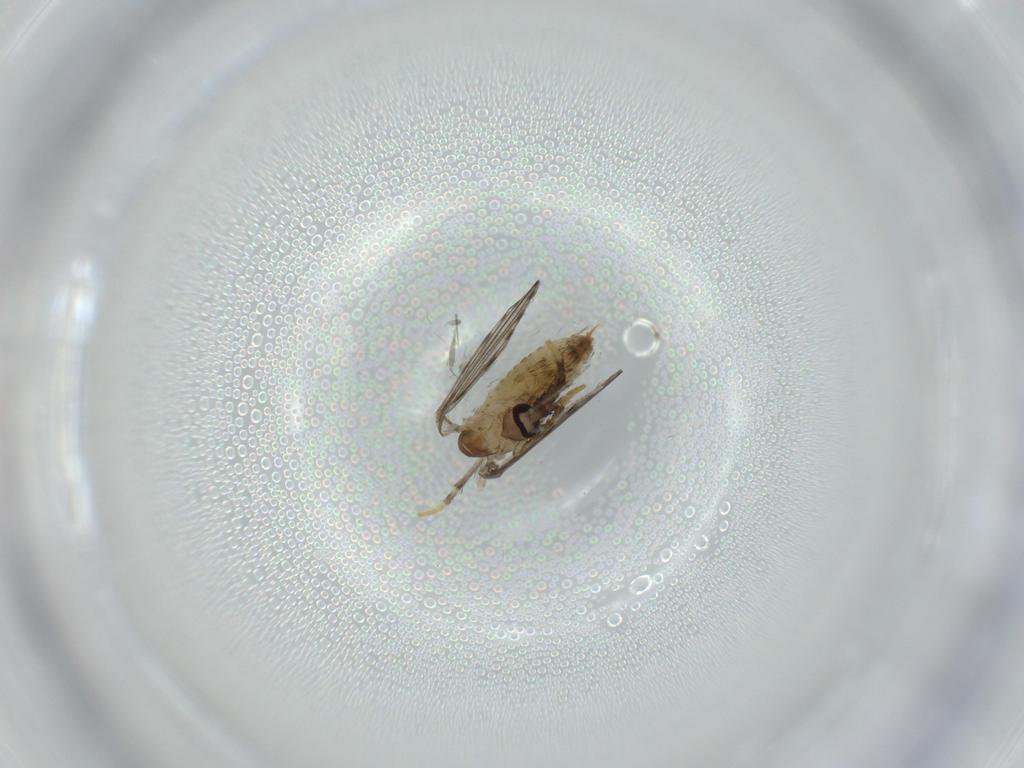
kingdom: Animalia
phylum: Arthropoda
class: Insecta
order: Diptera
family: Psychodidae
